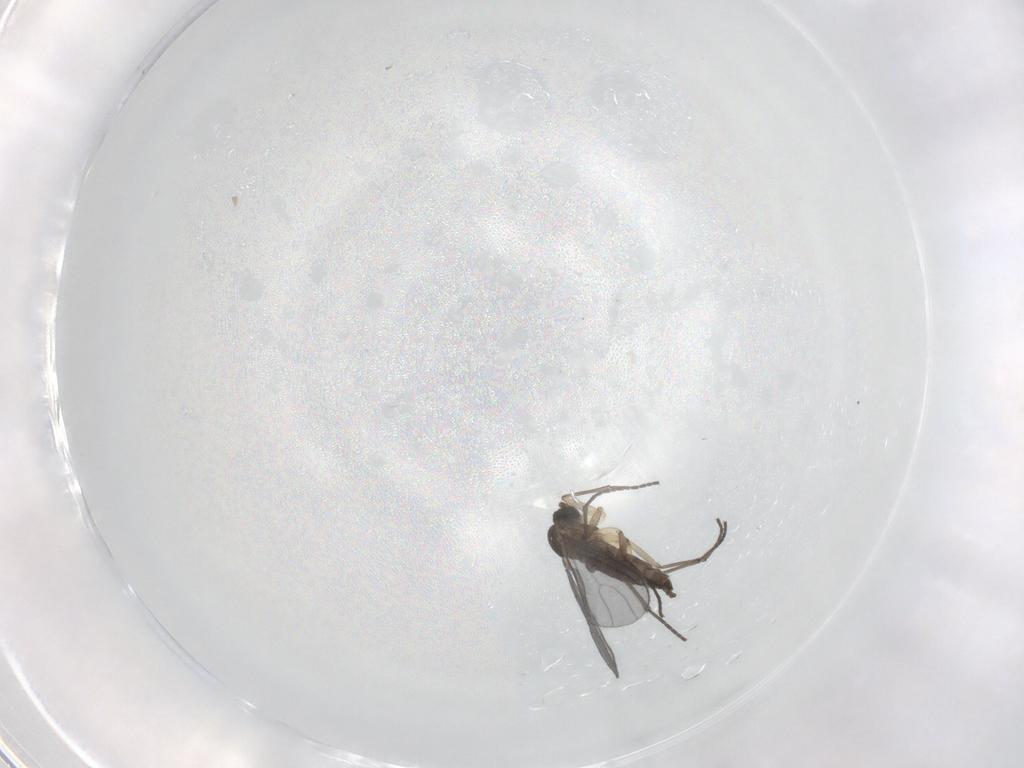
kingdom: Animalia
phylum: Arthropoda
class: Insecta
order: Diptera
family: Sciaridae
